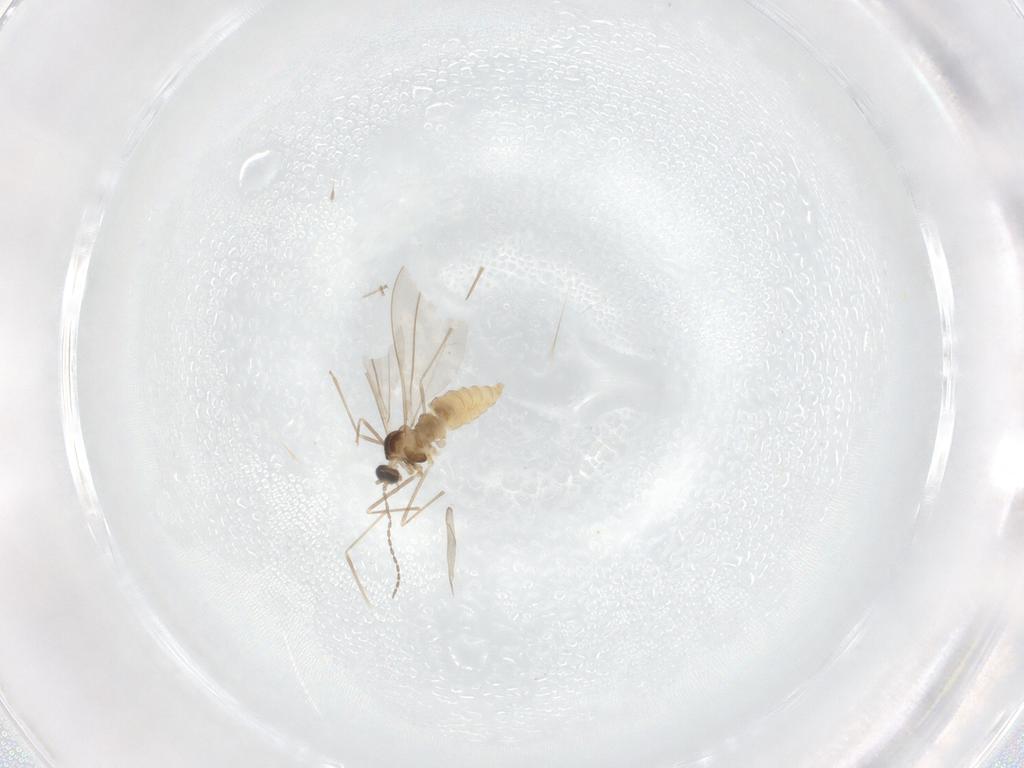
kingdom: Animalia
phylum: Arthropoda
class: Insecta
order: Diptera
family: Cecidomyiidae
